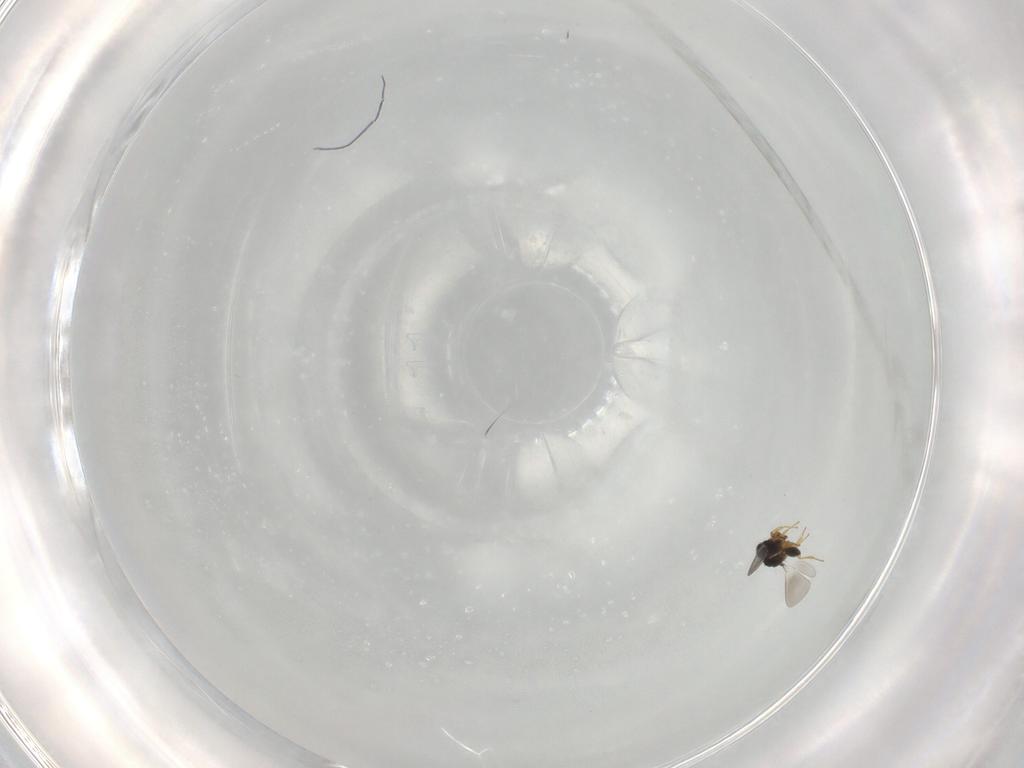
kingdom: Animalia
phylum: Arthropoda
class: Insecta
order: Hymenoptera
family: Platygastridae
